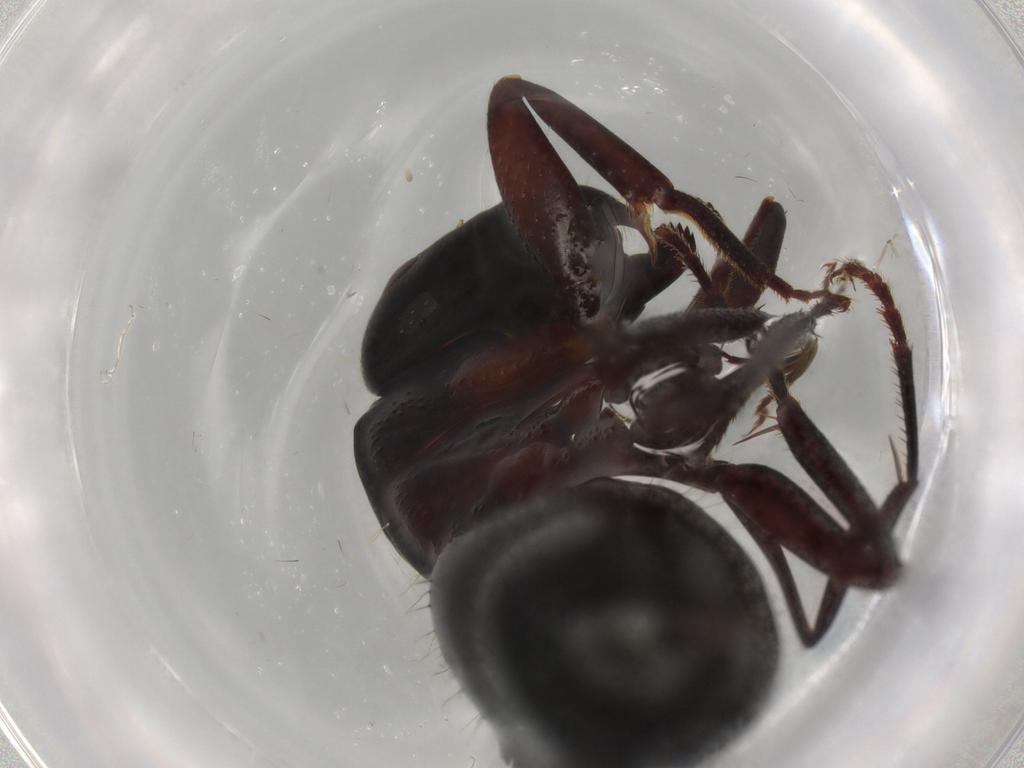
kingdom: Animalia
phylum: Arthropoda
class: Insecta
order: Hymenoptera
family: Formicidae
